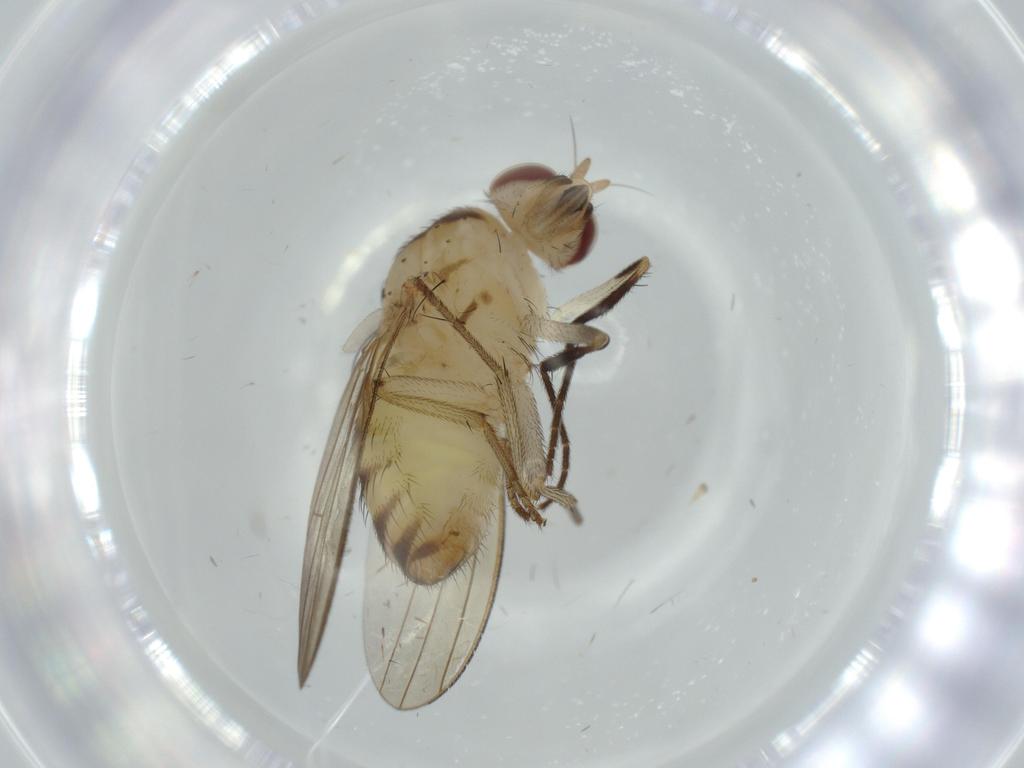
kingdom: Animalia
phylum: Arthropoda
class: Insecta
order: Diptera
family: Lauxaniidae
